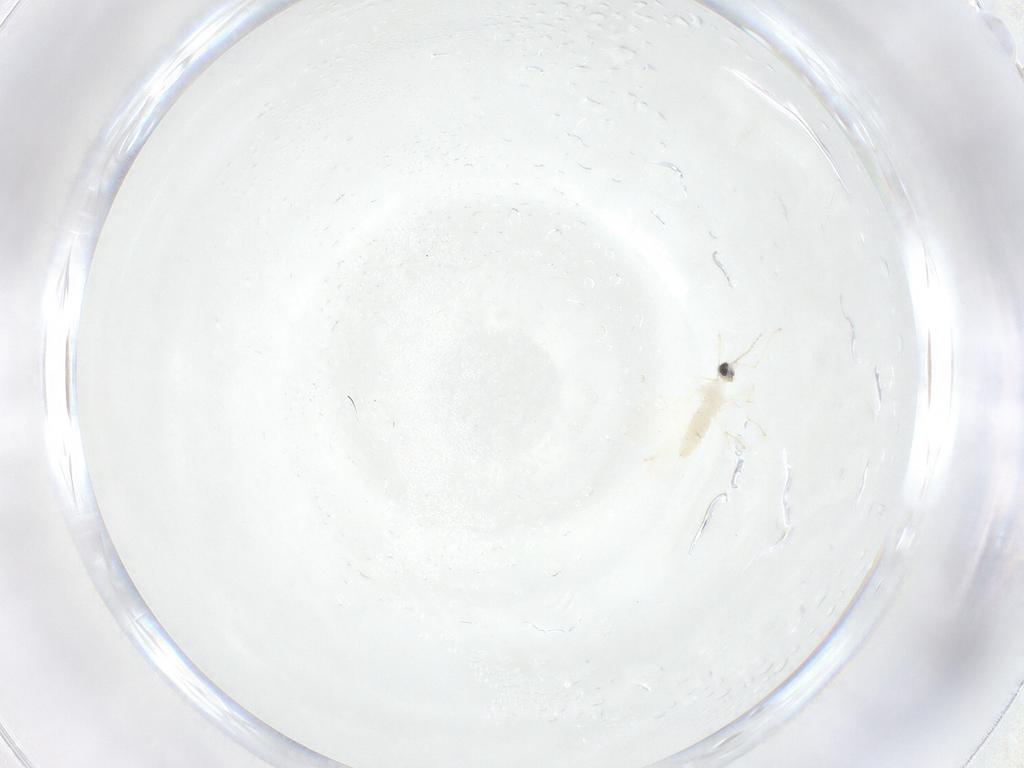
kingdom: Animalia
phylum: Arthropoda
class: Insecta
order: Diptera
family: Cecidomyiidae
